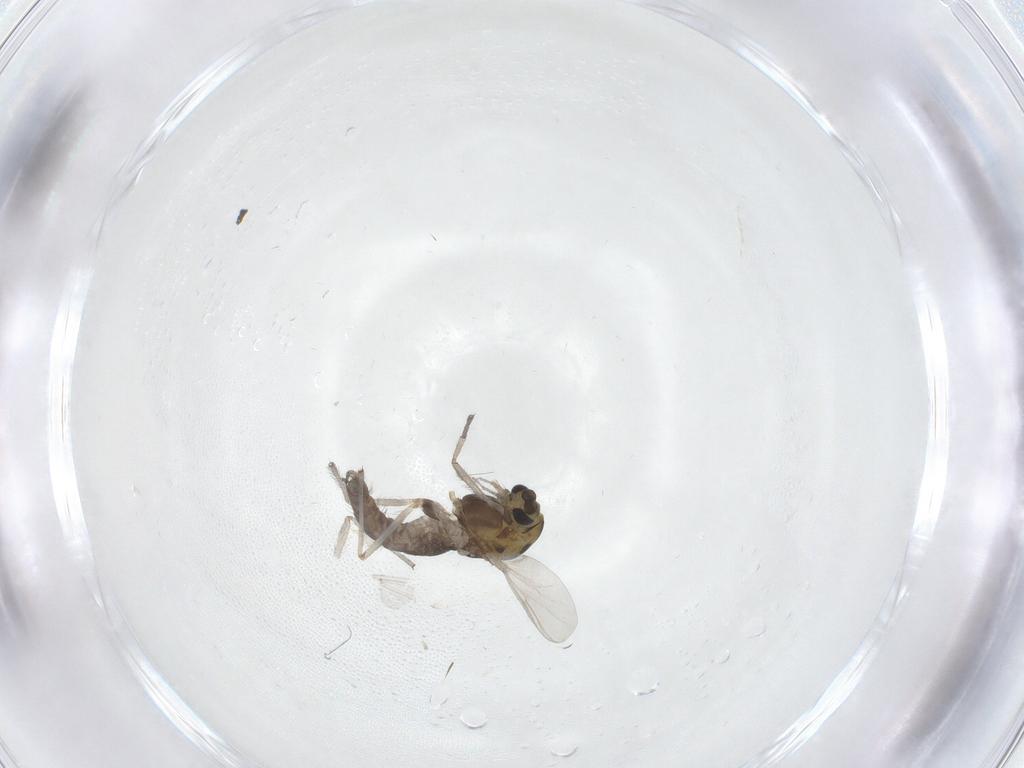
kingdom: Animalia
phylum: Arthropoda
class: Insecta
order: Diptera
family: Chironomidae
